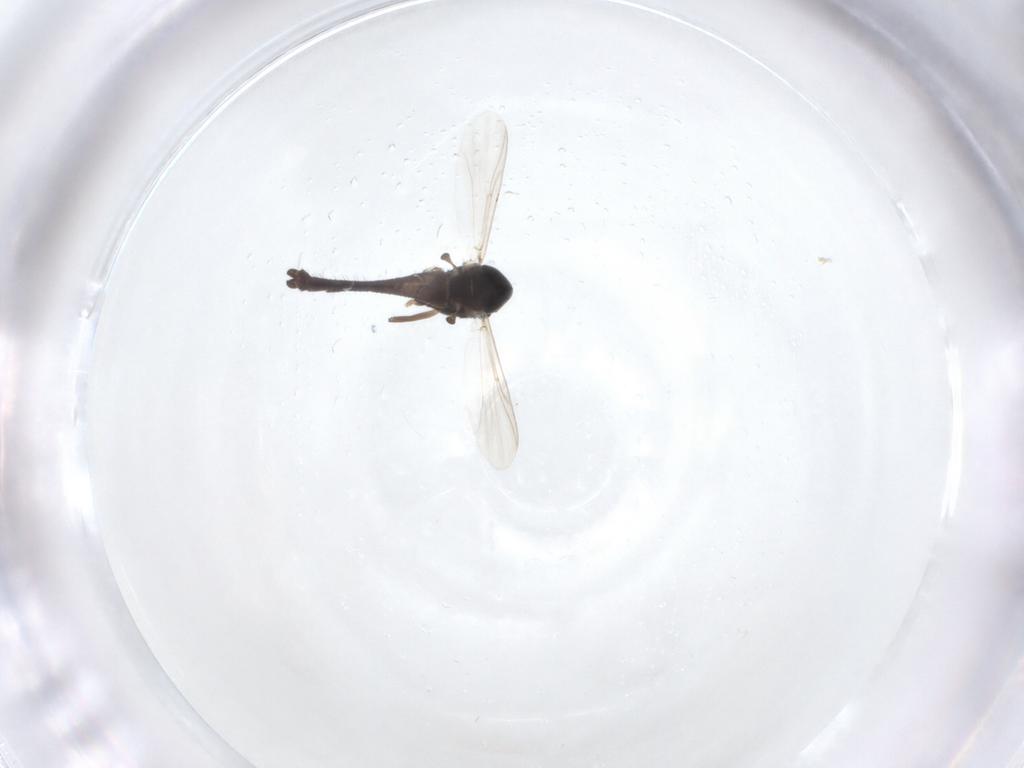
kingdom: Animalia
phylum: Arthropoda
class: Insecta
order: Diptera
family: Chironomidae
